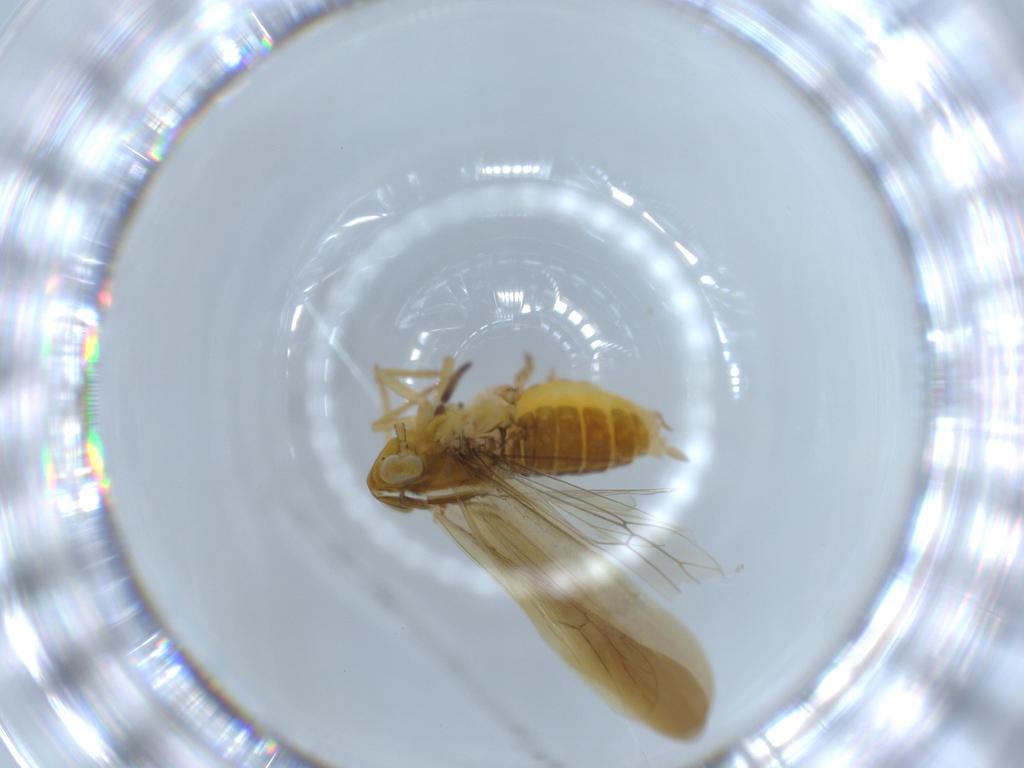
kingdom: Animalia
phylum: Arthropoda
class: Insecta
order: Hemiptera
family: Delphacidae
